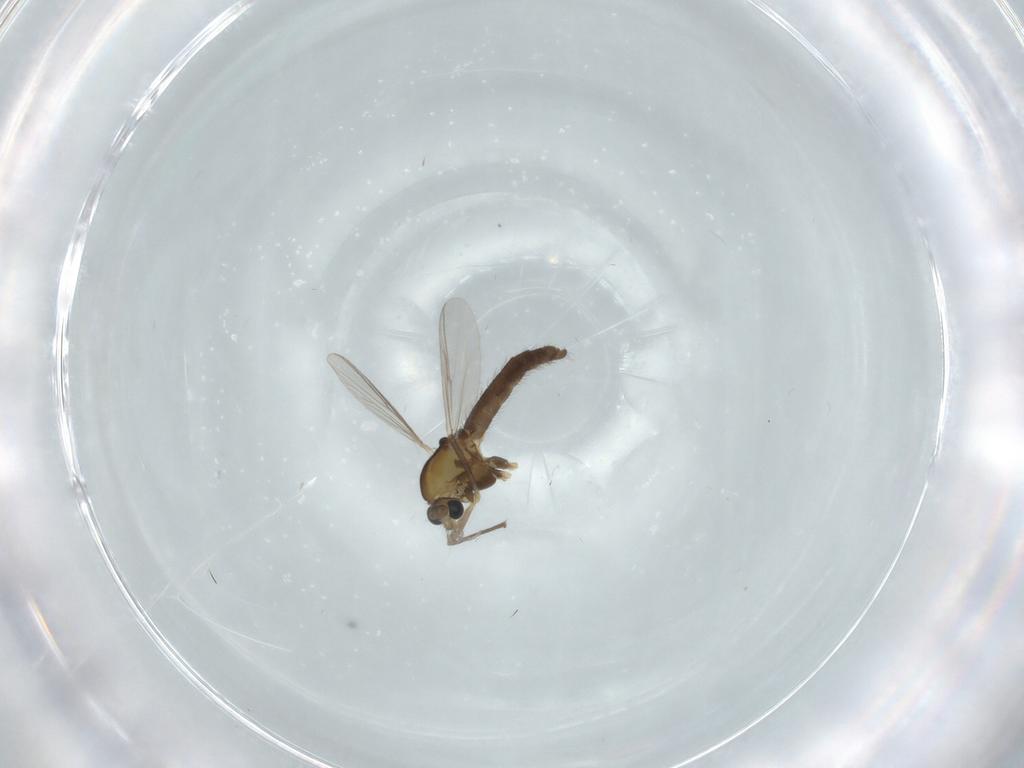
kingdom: Animalia
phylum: Arthropoda
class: Insecta
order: Diptera
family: Chironomidae
